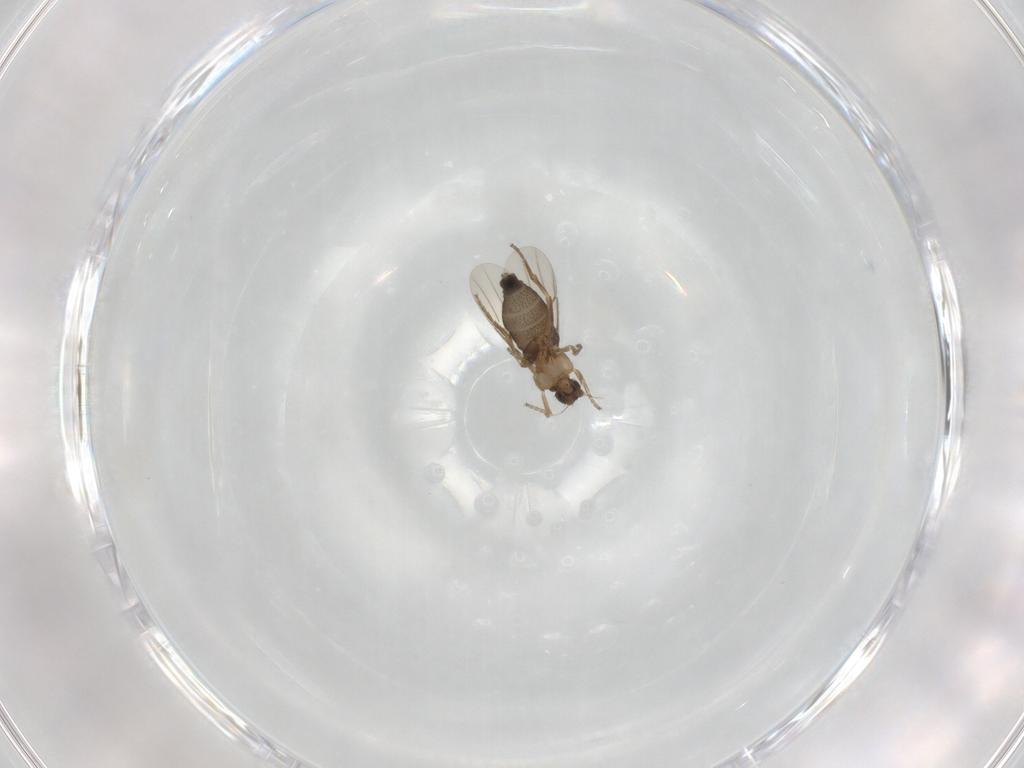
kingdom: Animalia
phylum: Arthropoda
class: Insecta
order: Diptera
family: Phoridae
